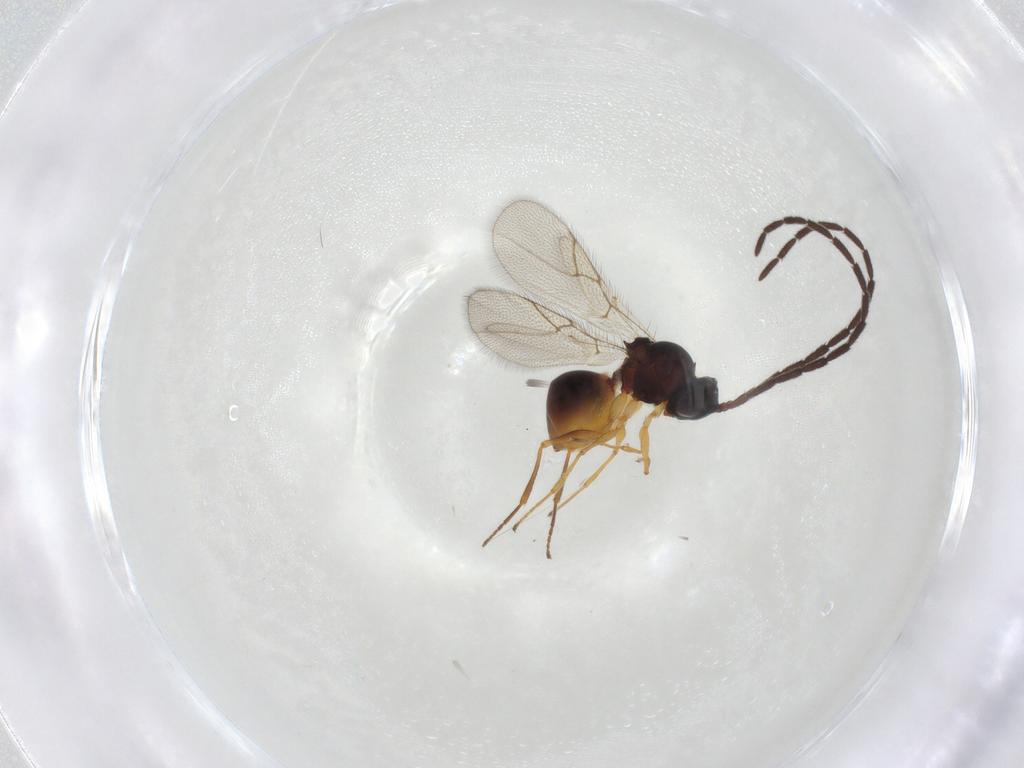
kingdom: Animalia
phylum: Arthropoda
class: Insecta
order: Hymenoptera
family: Figitidae
